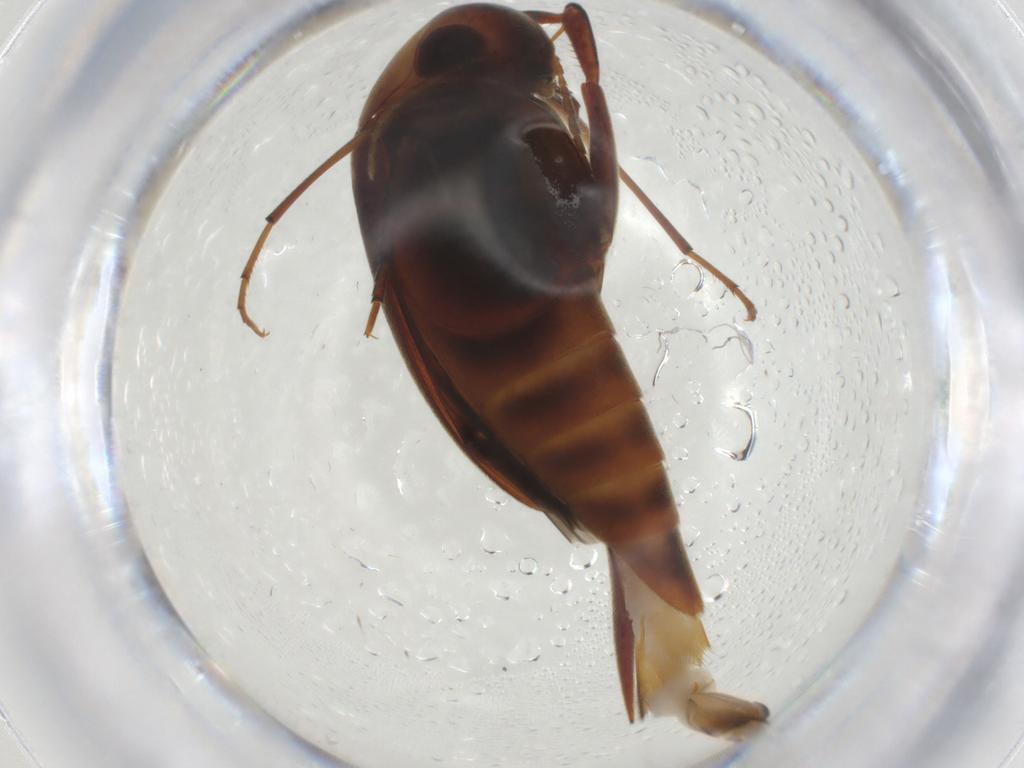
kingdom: Animalia
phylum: Arthropoda
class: Insecta
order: Coleoptera
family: Mordellidae
